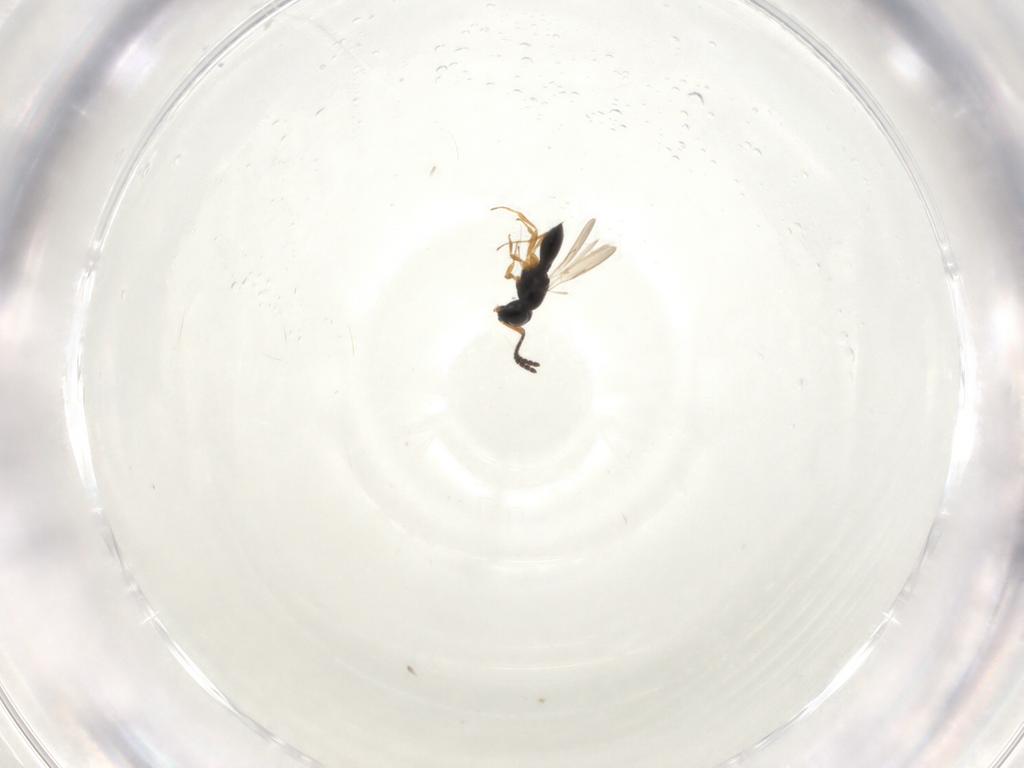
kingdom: Animalia
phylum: Arthropoda
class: Insecta
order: Hymenoptera
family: Scelionidae
